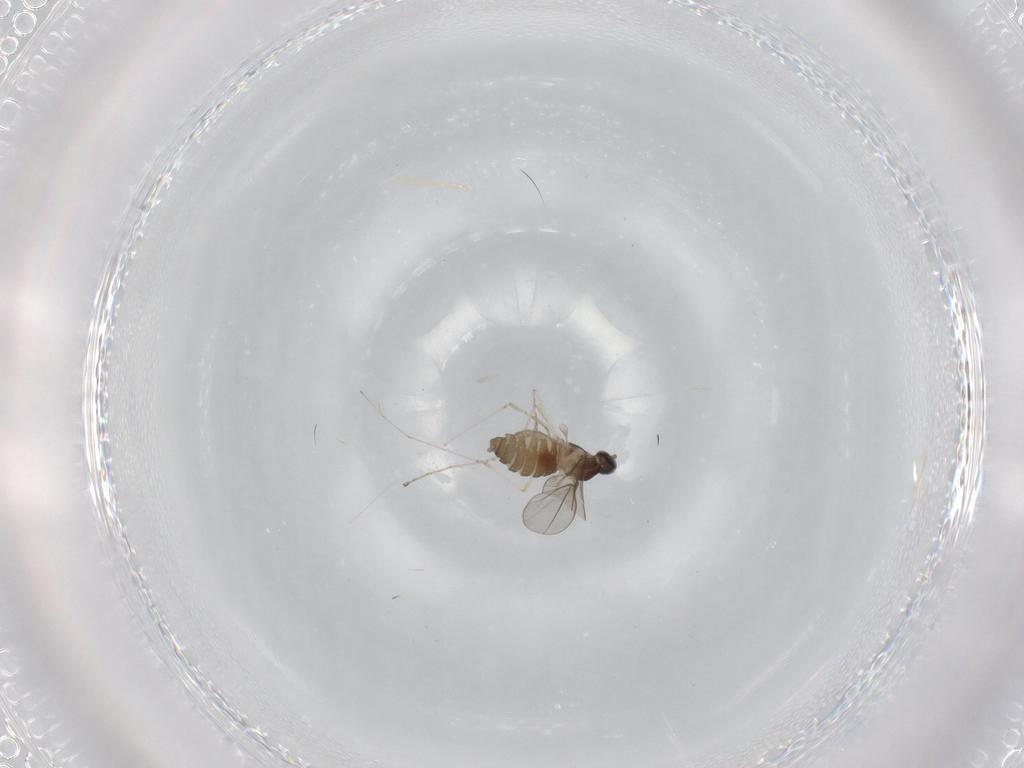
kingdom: Animalia
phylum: Arthropoda
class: Insecta
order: Diptera
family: Cecidomyiidae
